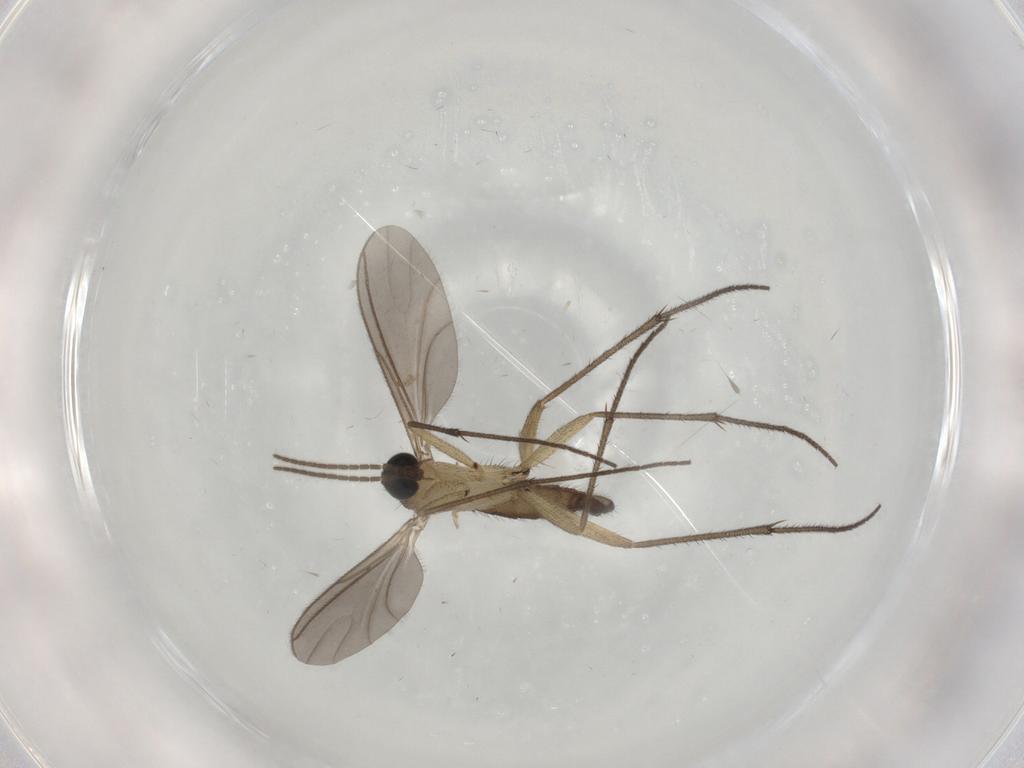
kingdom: Animalia
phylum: Arthropoda
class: Insecta
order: Diptera
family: Sciaridae
